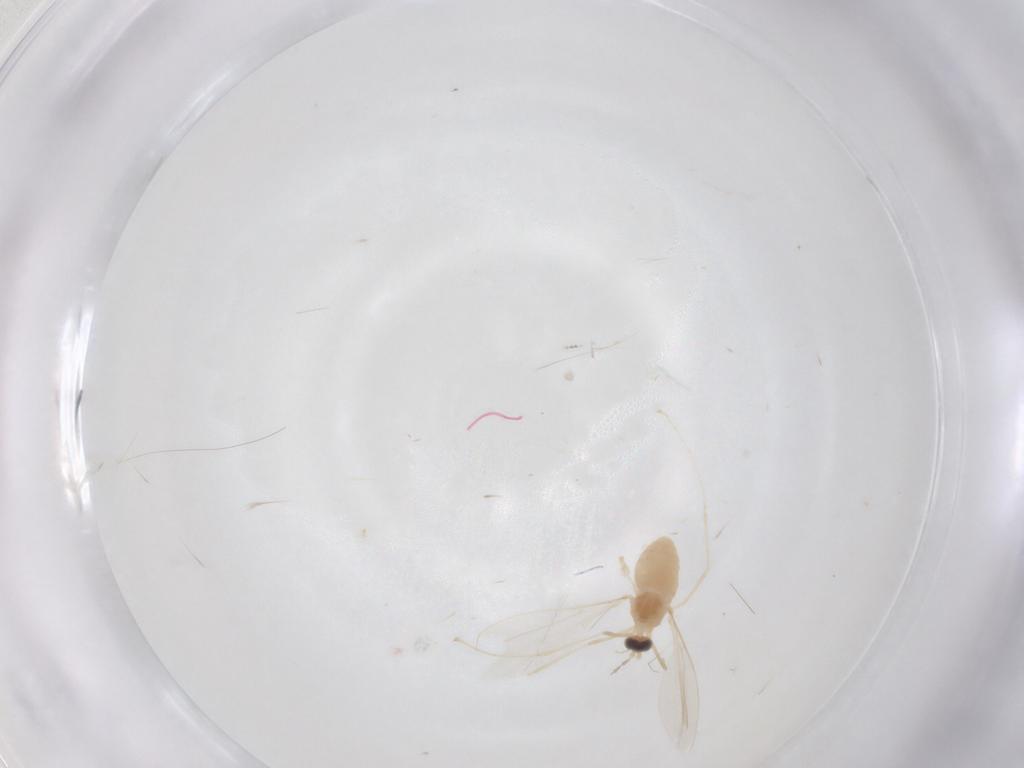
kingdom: Animalia
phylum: Arthropoda
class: Insecta
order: Diptera
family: Cecidomyiidae
